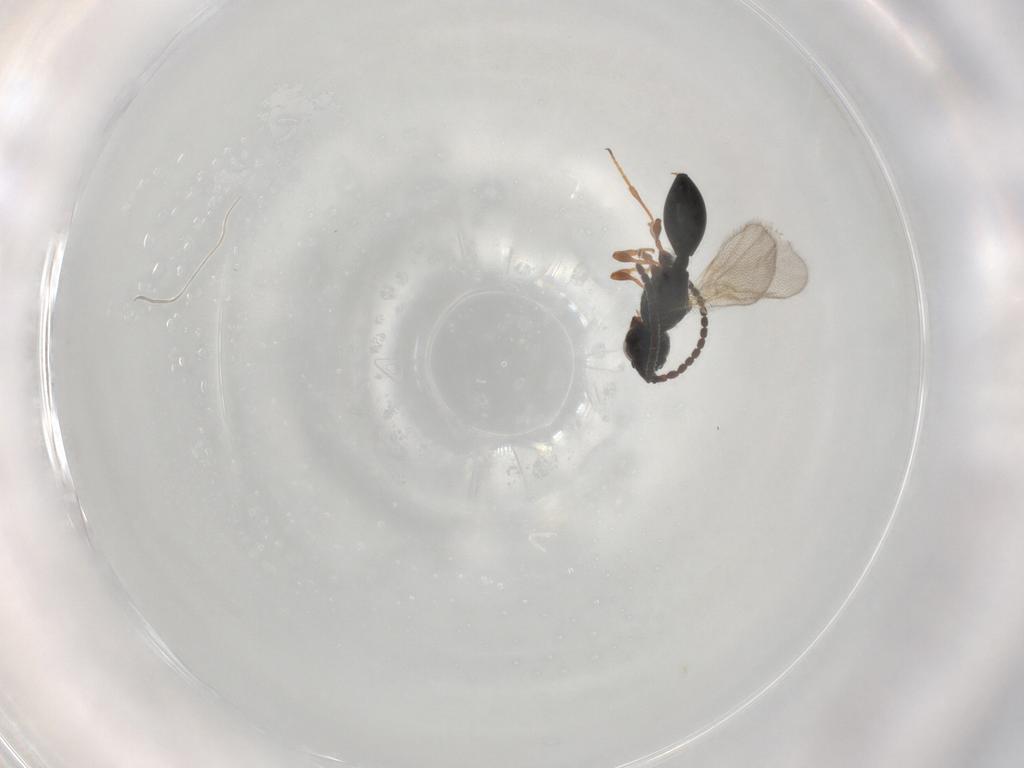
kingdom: Animalia
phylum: Arthropoda
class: Insecta
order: Hymenoptera
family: Diapriidae
